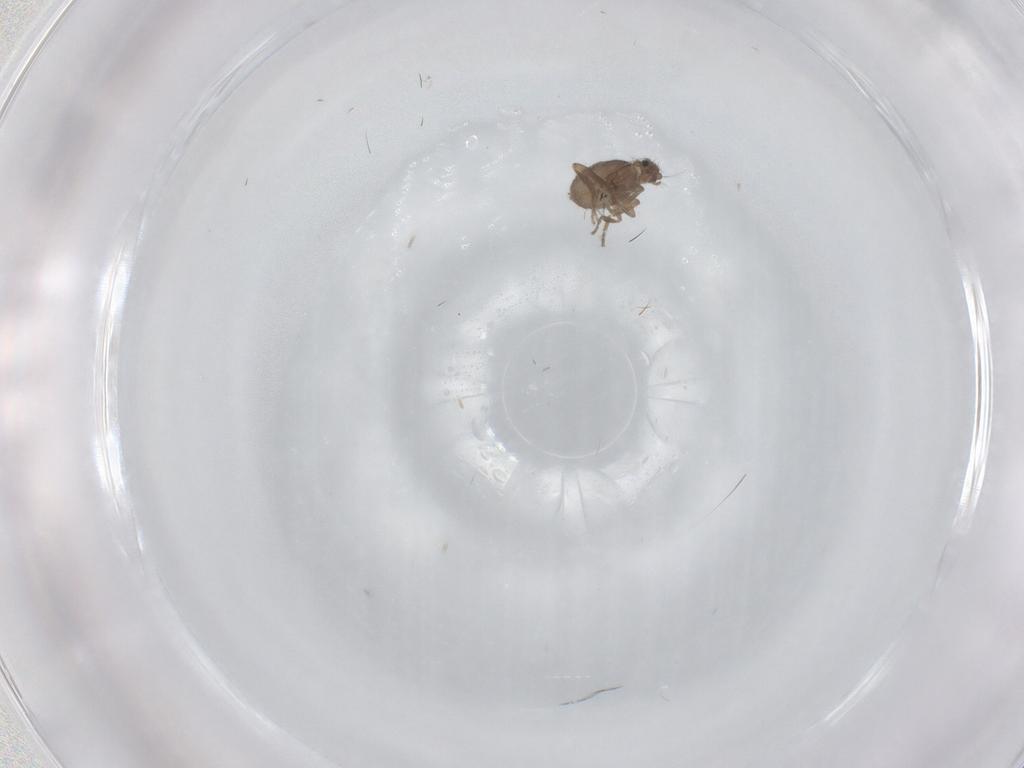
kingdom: Animalia
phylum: Arthropoda
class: Insecta
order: Diptera
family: Tabanidae
